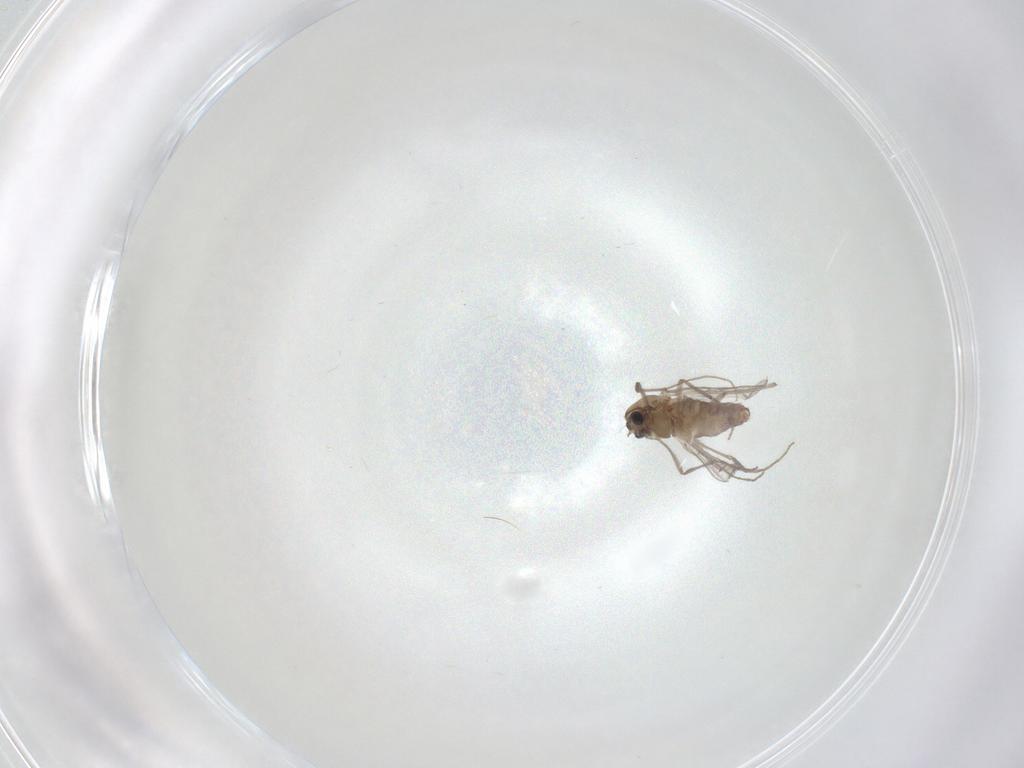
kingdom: Animalia
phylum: Arthropoda
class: Insecta
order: Diptera
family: Chironomidae
